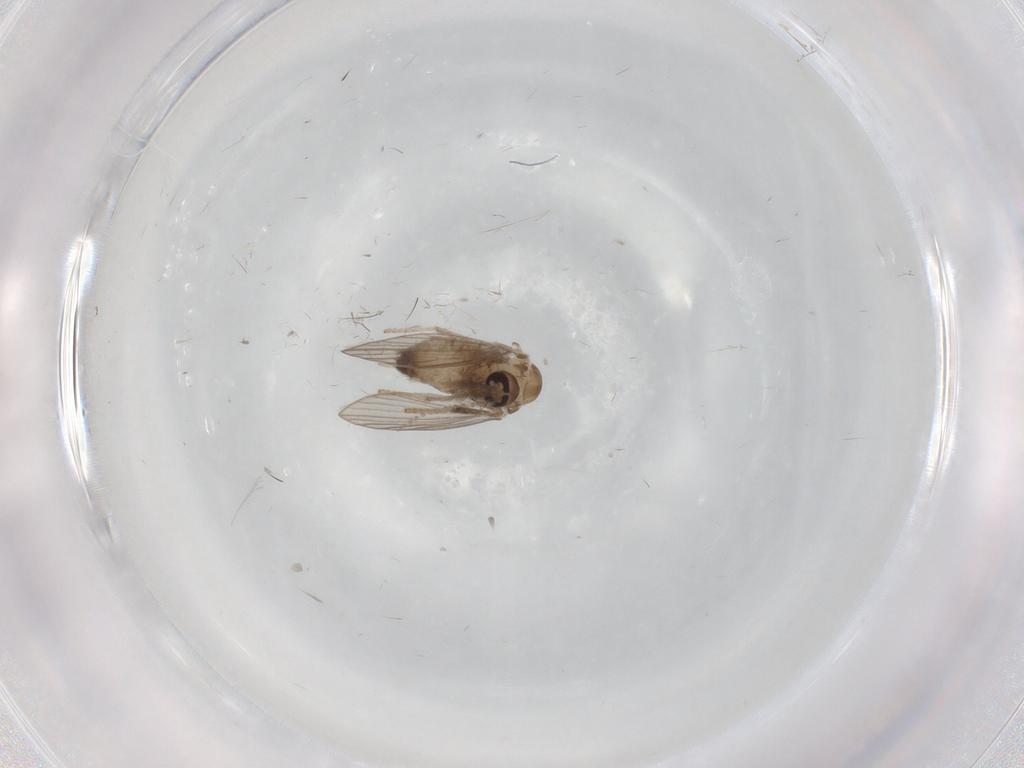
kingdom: Animalia
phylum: Arthropoda
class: Insecta
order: Diptera
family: Psychodidae
